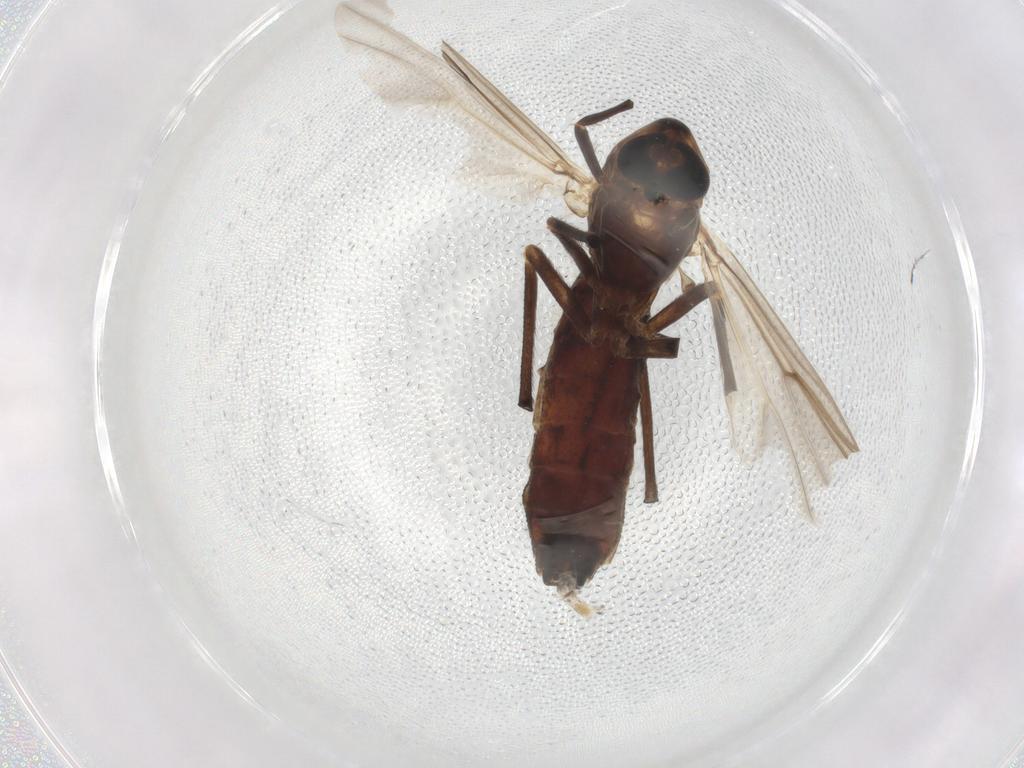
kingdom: Animalia
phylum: Arthropoda
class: Insecta
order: Diptera
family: Chironomidae
